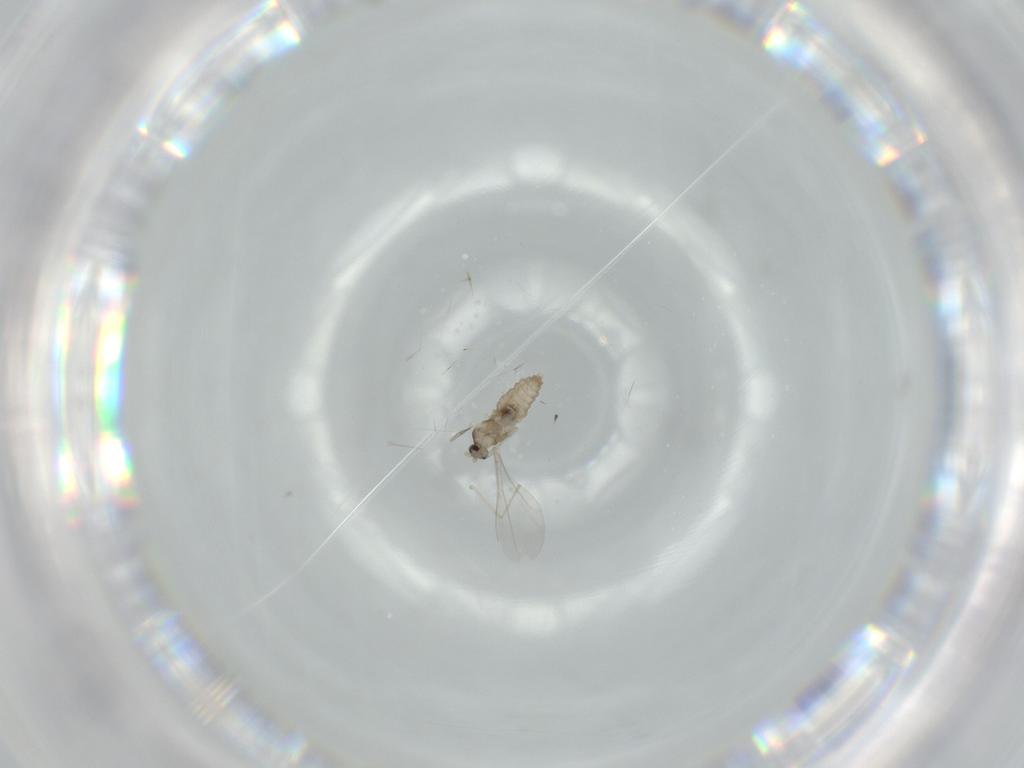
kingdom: Animalia
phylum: Arthropoda
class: Insecta
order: Diptera
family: Cecidomyiidae
